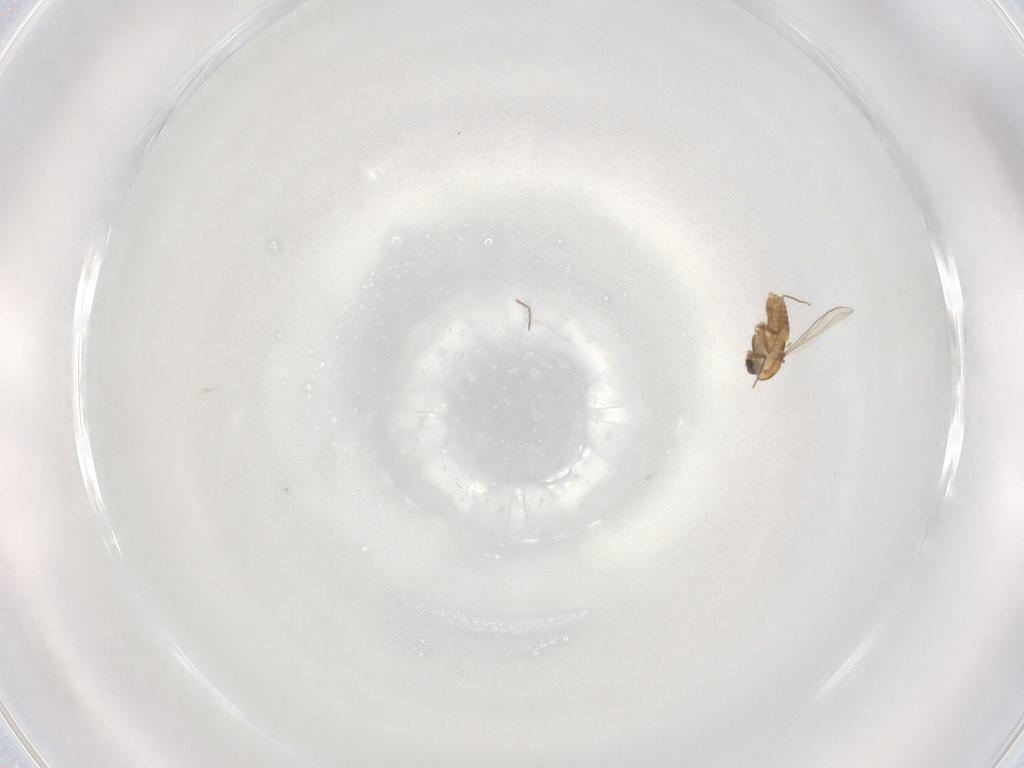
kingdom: Animalia
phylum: Arthropoda
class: Insecta
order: Diptera
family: Chironomidae
